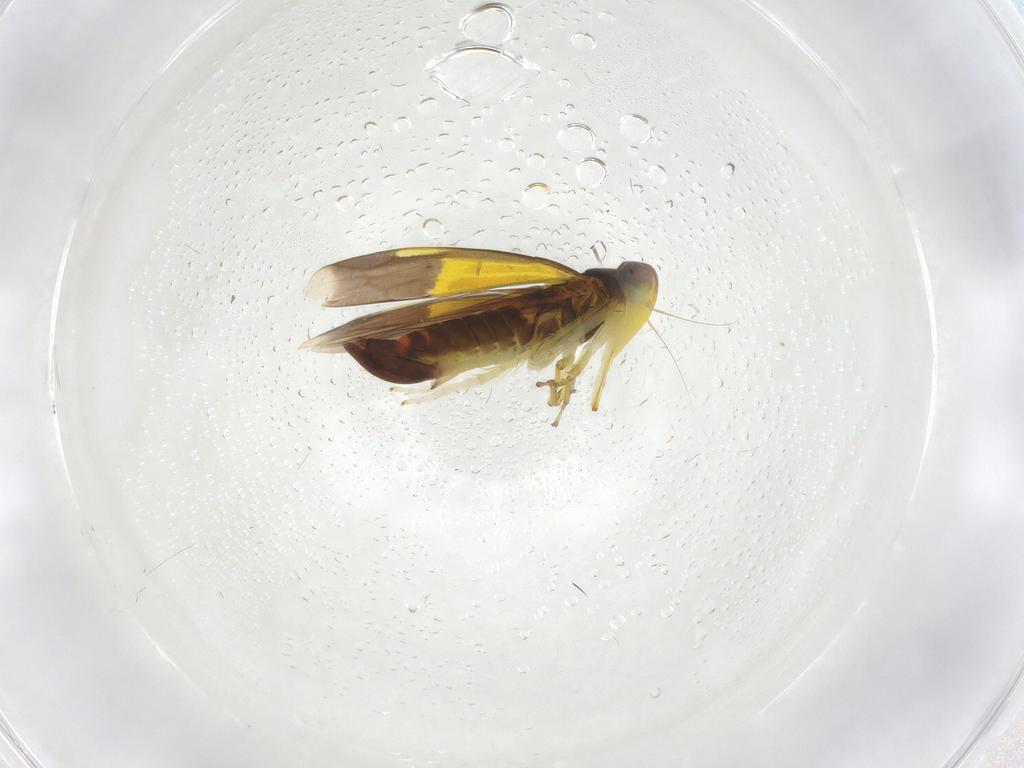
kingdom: Animalia
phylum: Arthropoda
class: Insecta
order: Hemiptera
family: Cicadellidae
